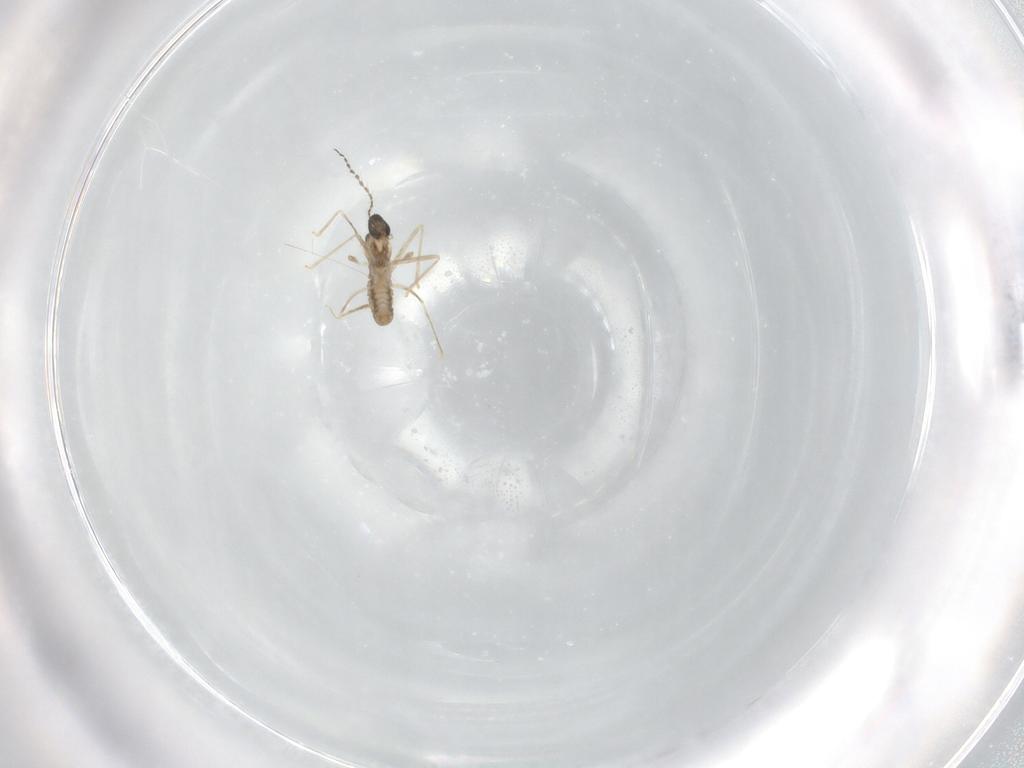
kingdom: Animalia
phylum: Arthropoda
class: Insecta
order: Diptera
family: Cecidomyiidae
